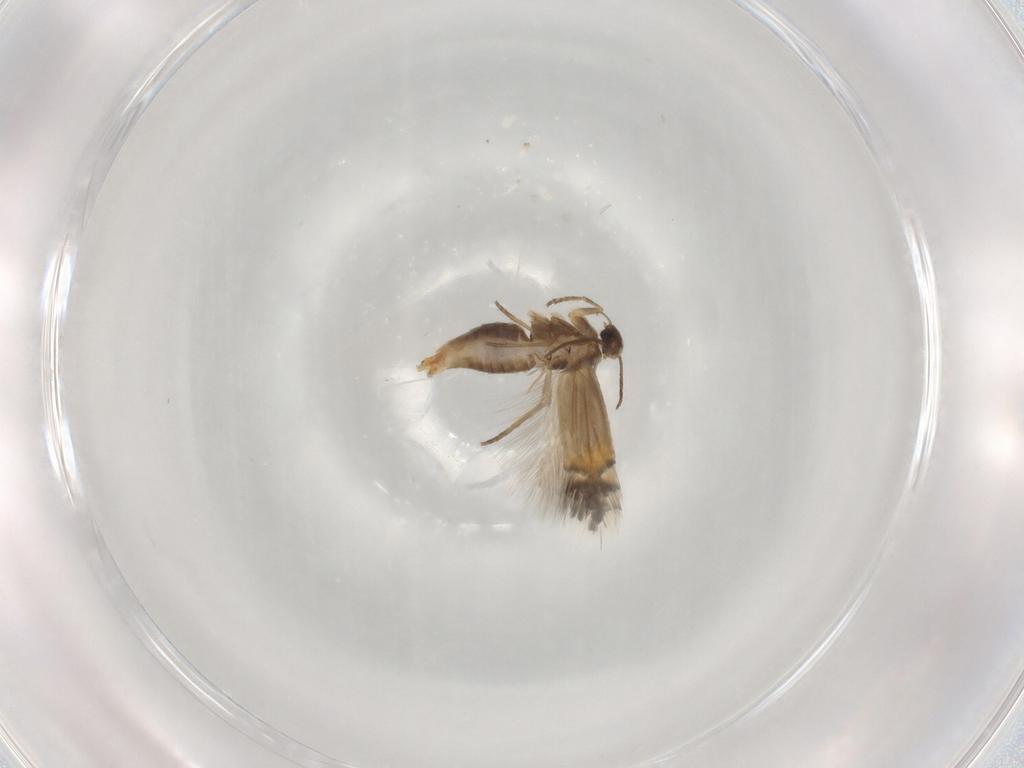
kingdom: Animalia
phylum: Arthropoda
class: Insecta
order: Lepidoptera
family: Heliozelidae
